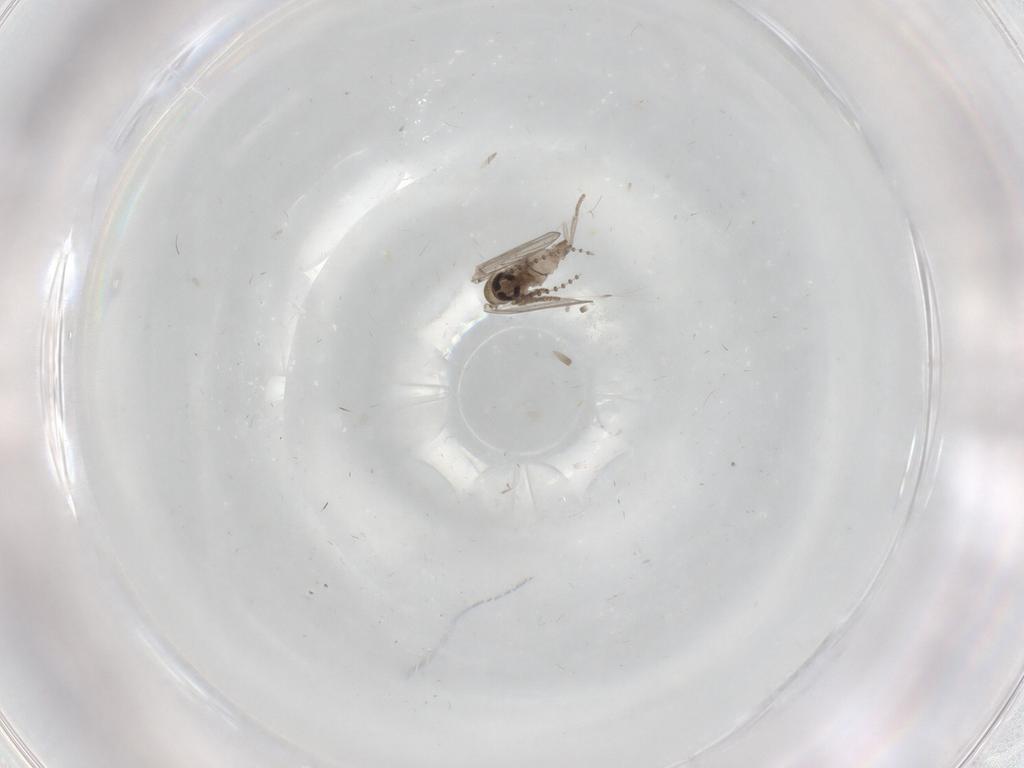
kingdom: Animalia
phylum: Arthropoda
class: Insecta
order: Diptera
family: Psychodidae
